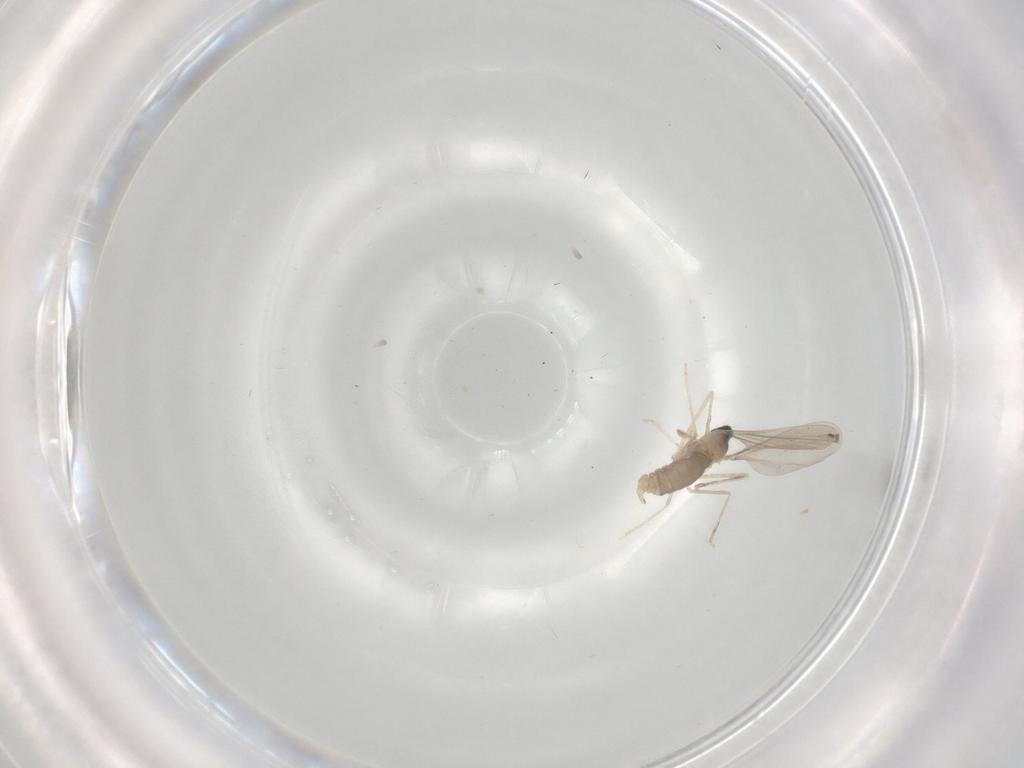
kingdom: Animalia
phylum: Arthropoda
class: Insecta
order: Diptera
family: Cecidomyiidae
